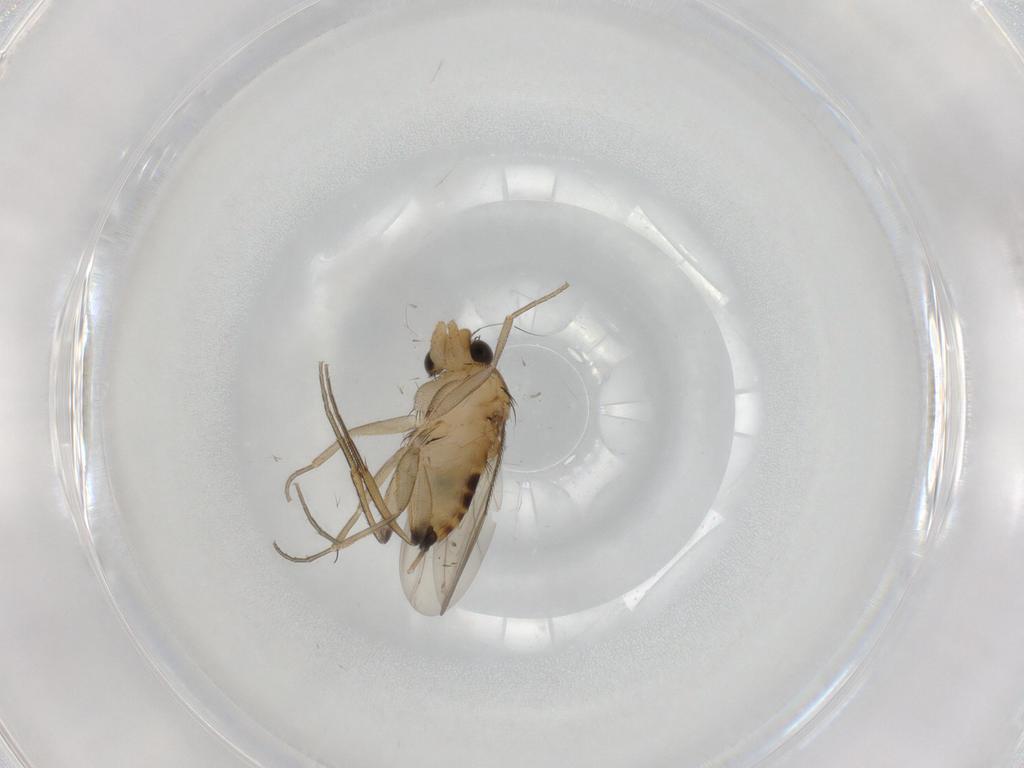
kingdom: Animalia
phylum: Arthropoda
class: Insecta
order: Diptera
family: Phoridae
